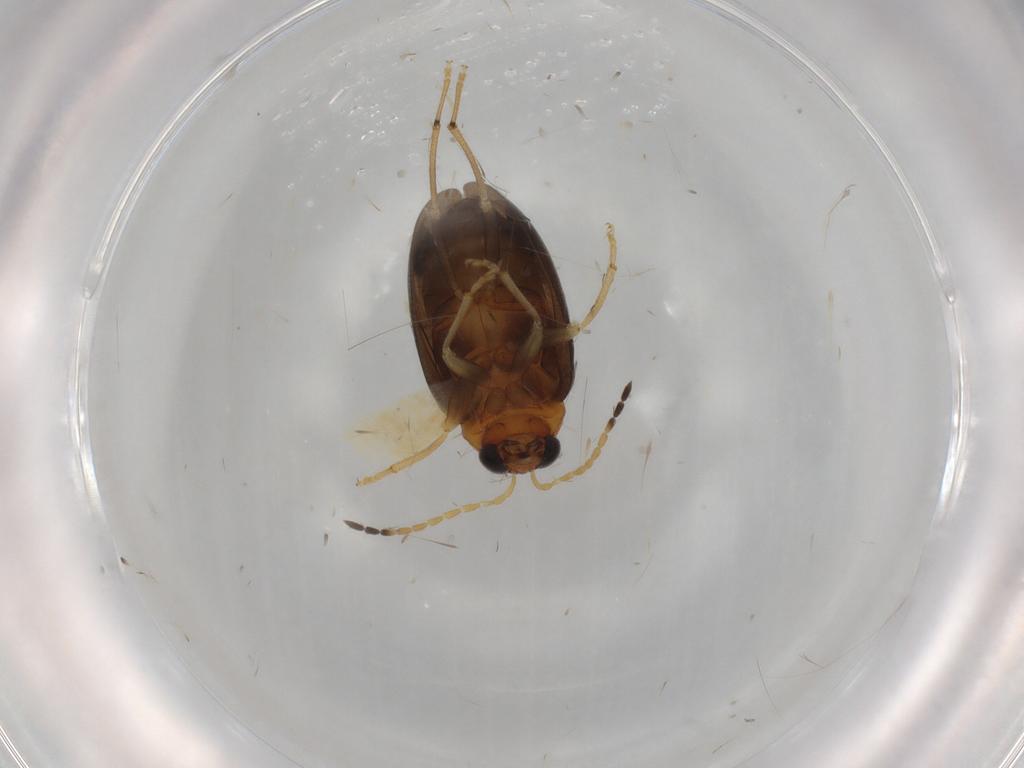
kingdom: Animalia
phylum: Arthropoda
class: Insecta
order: Coleoptera
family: Chrysomelidae
